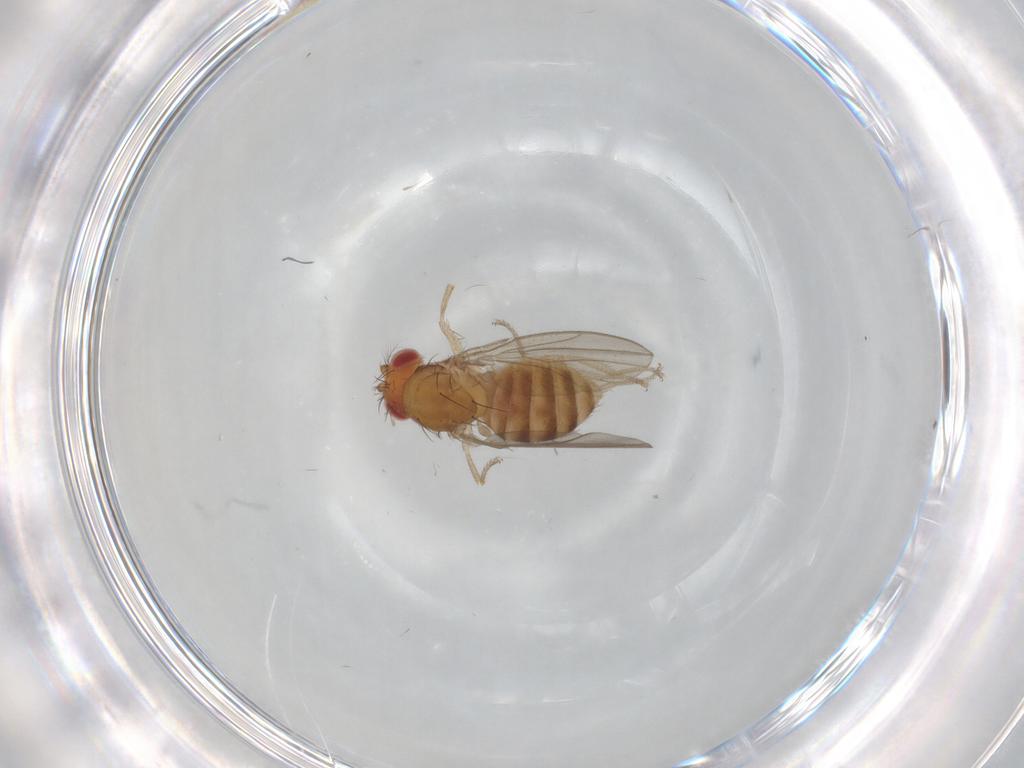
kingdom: Animalia
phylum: Arthropoda
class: Insecta
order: Diptera
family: Drosophilidae
